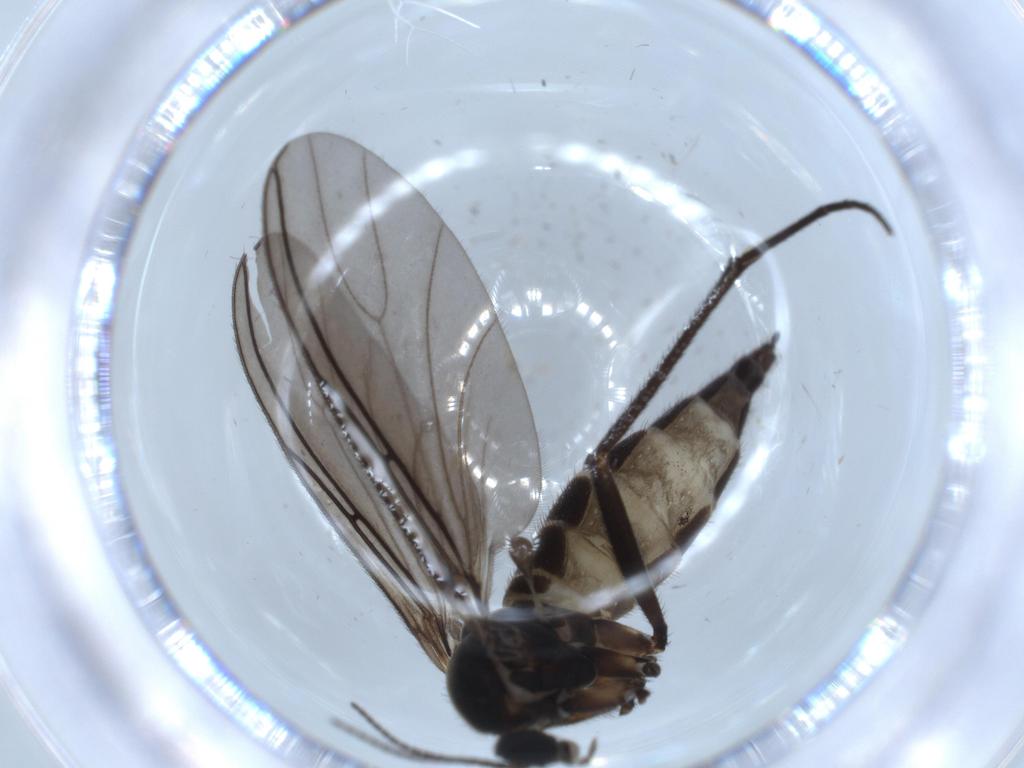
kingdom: Animalia
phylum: Arthropoda
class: Insecta
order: Diptera
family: Sciaridae
